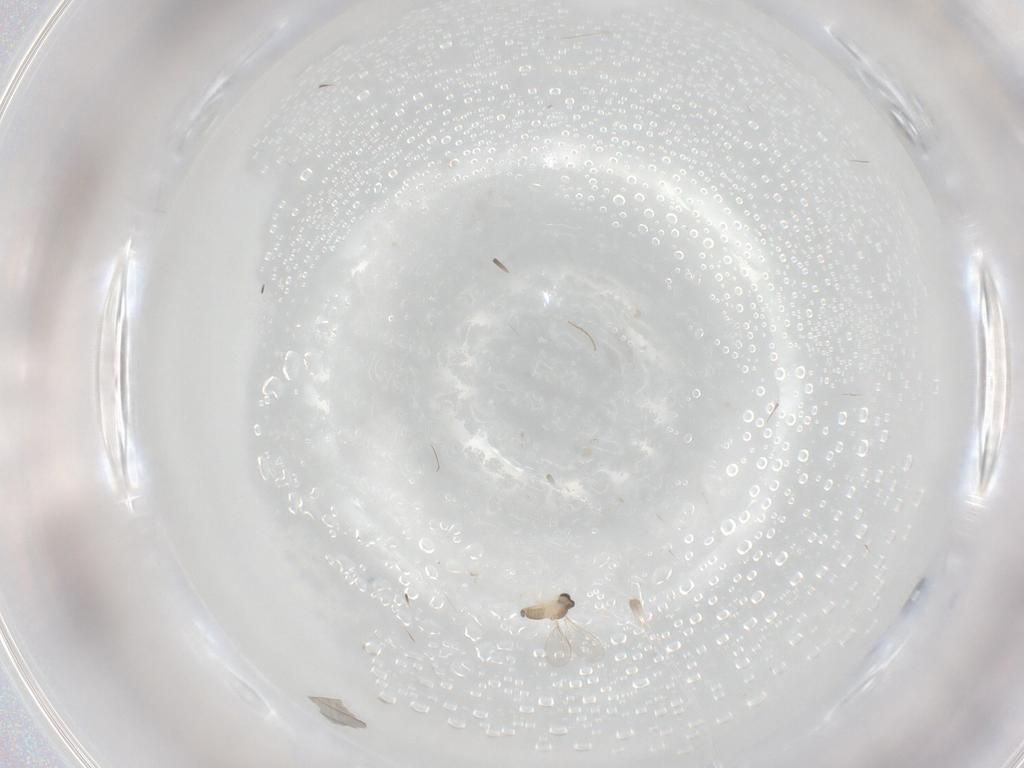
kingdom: Animalia
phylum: Arthropoda
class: Insecta
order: Diptera
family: Cecidomyiidae
